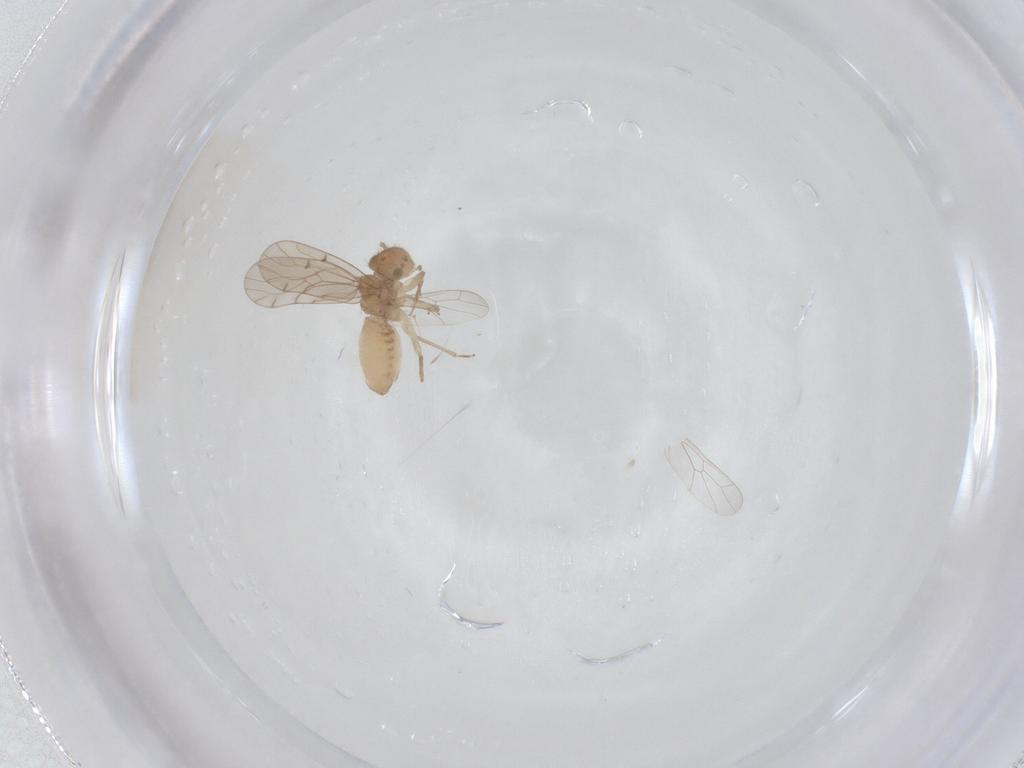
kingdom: Animalia
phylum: Arthropoda
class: Insecta
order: Psocodea
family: Ectopsocidae
